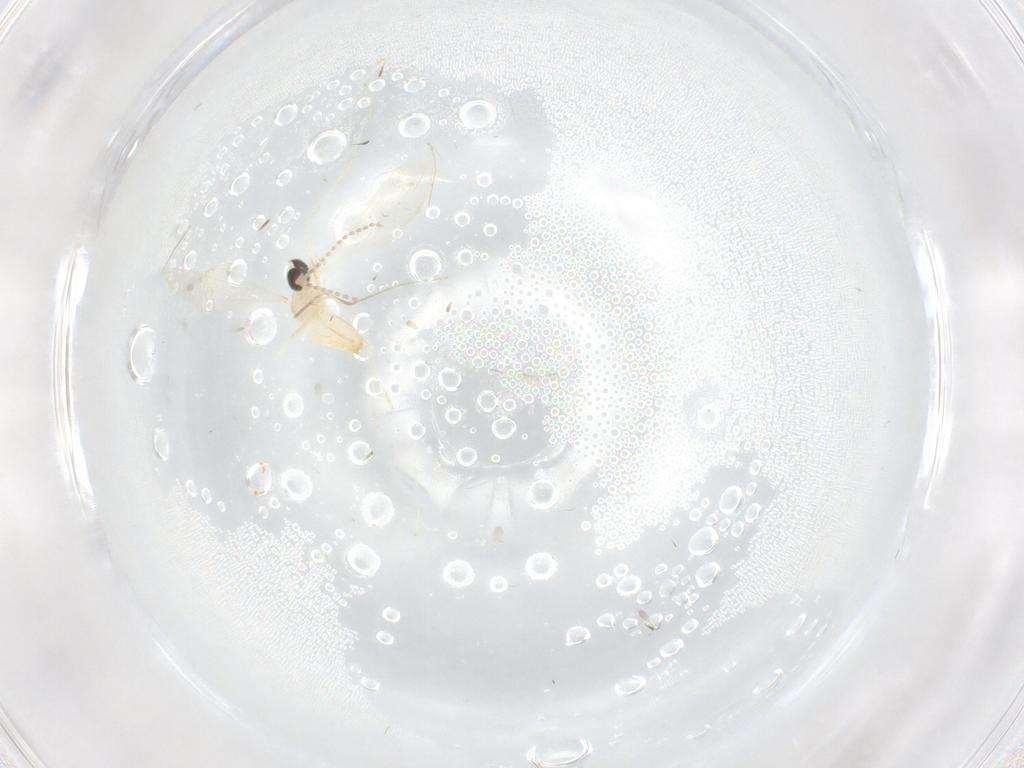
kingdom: Animalia
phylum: Arthropoda
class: Insecta
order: Diptera
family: Cecidomyiidae
